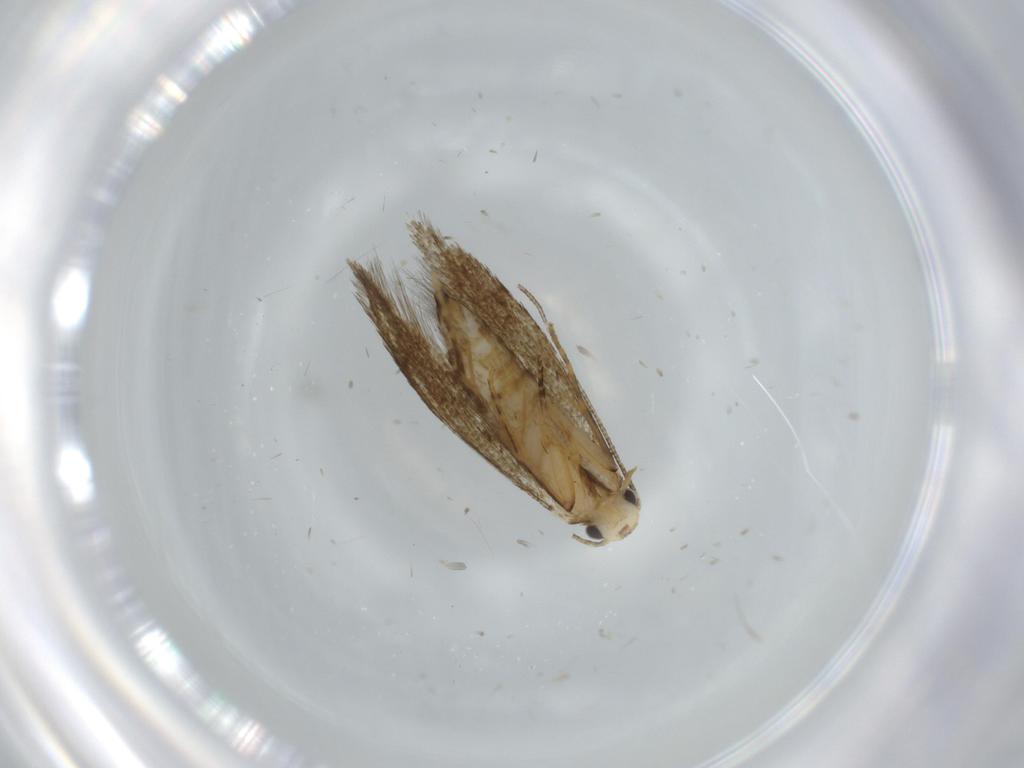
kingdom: Animalia
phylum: Arthropoda
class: Insecta
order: Lepidoptera
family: Tineidae
